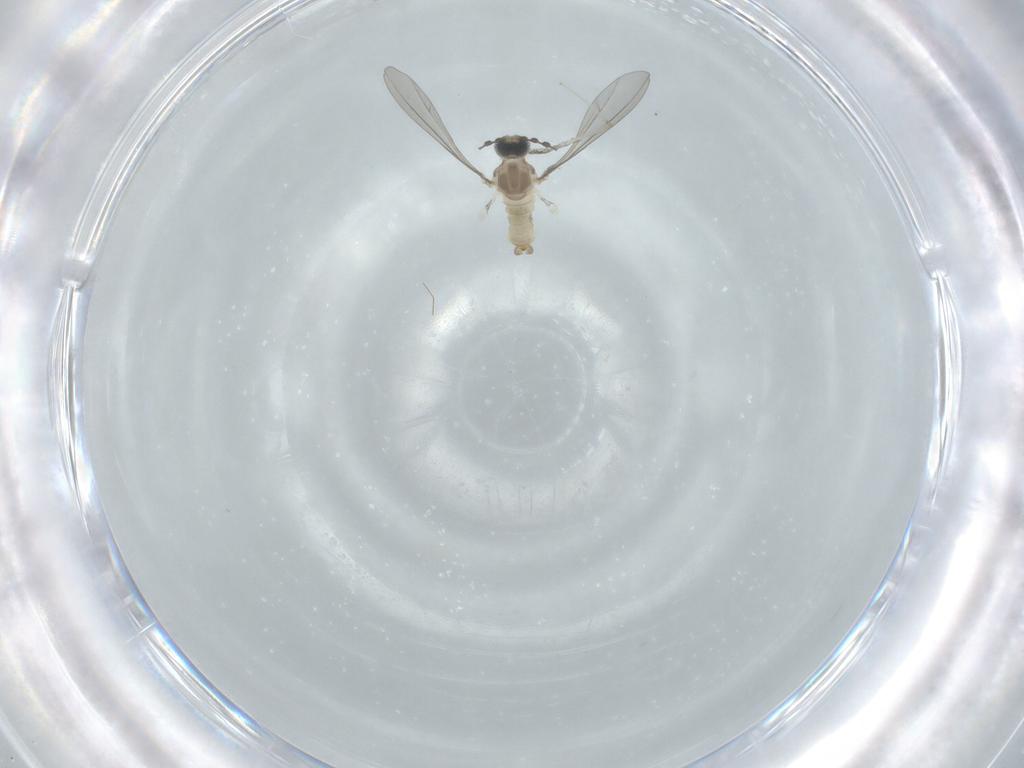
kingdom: Animalia
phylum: Arthropoda
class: Insecta
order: Diptera
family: Cecidomyiidae
